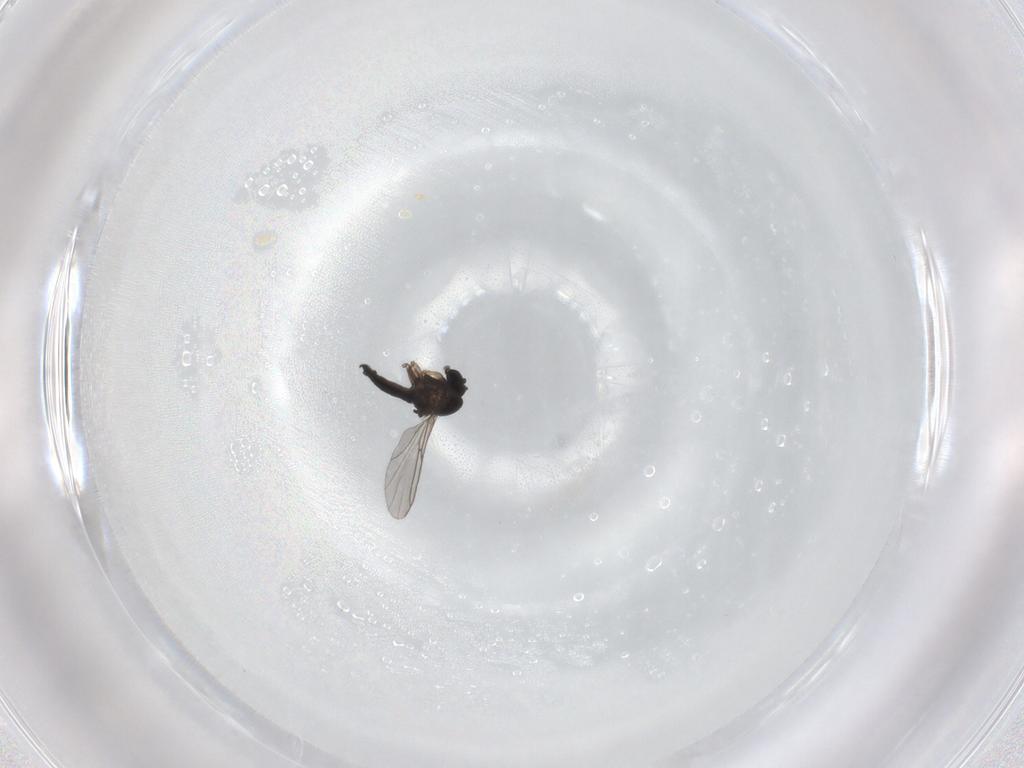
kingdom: Animalia
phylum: Arthropoda
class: Insecta
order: Diptera
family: Sciaridae
